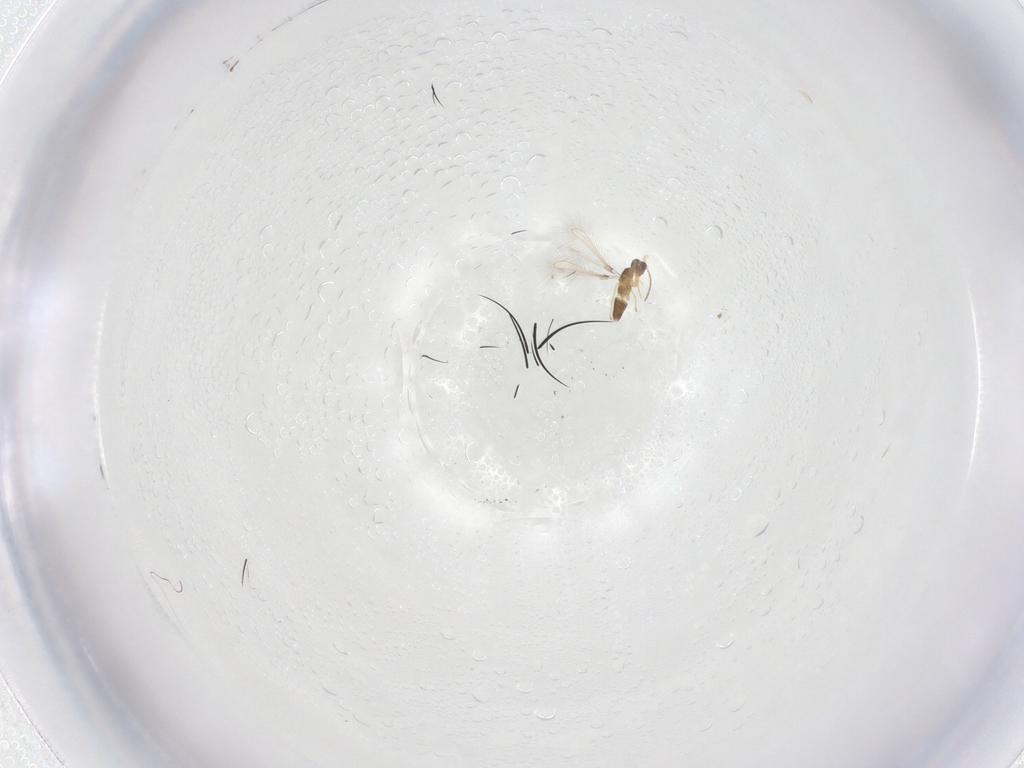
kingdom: Animalia
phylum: Arthropoda
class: Insecta
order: Hymenoptera
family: Mymaridae
